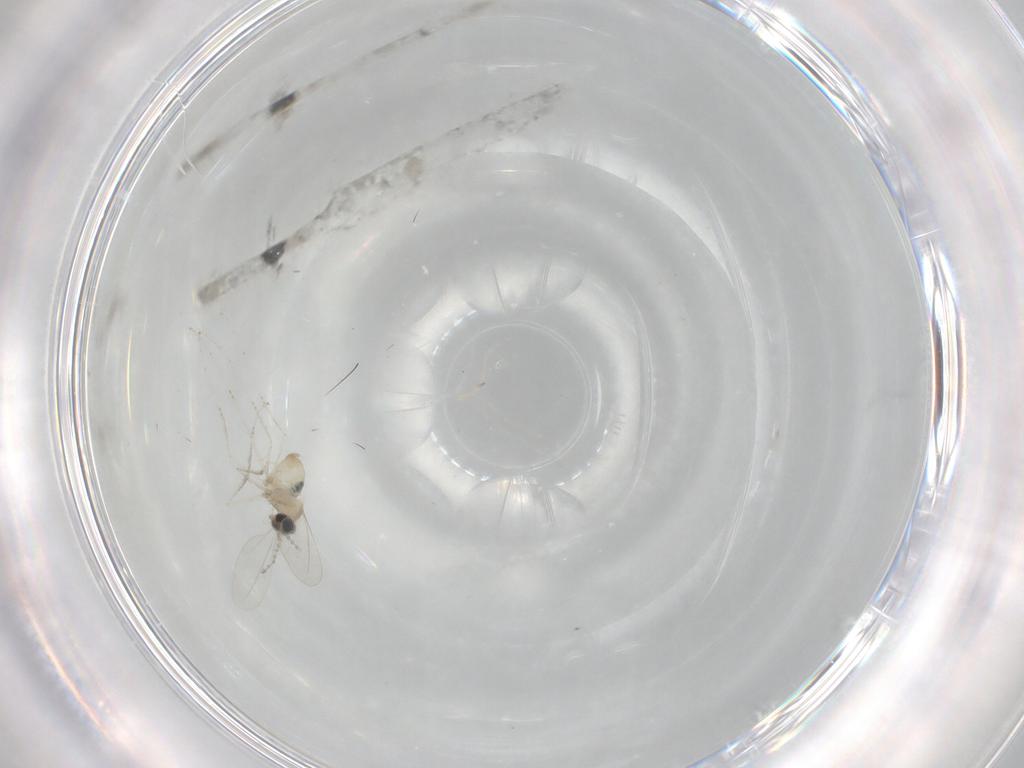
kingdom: Animalia
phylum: Arthropoda
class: Insecta
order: Diptera
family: Cecidomyiidae
